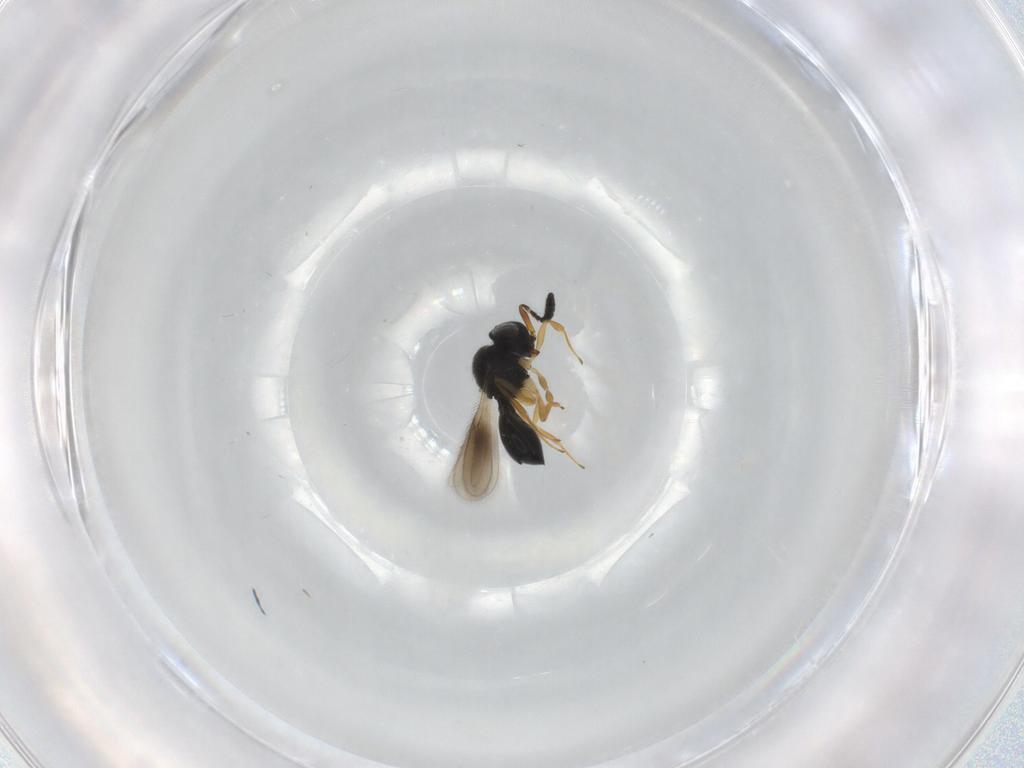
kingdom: Animalia
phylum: Arthropoda
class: Insecta
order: Hymenoptera
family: Scelionidae
